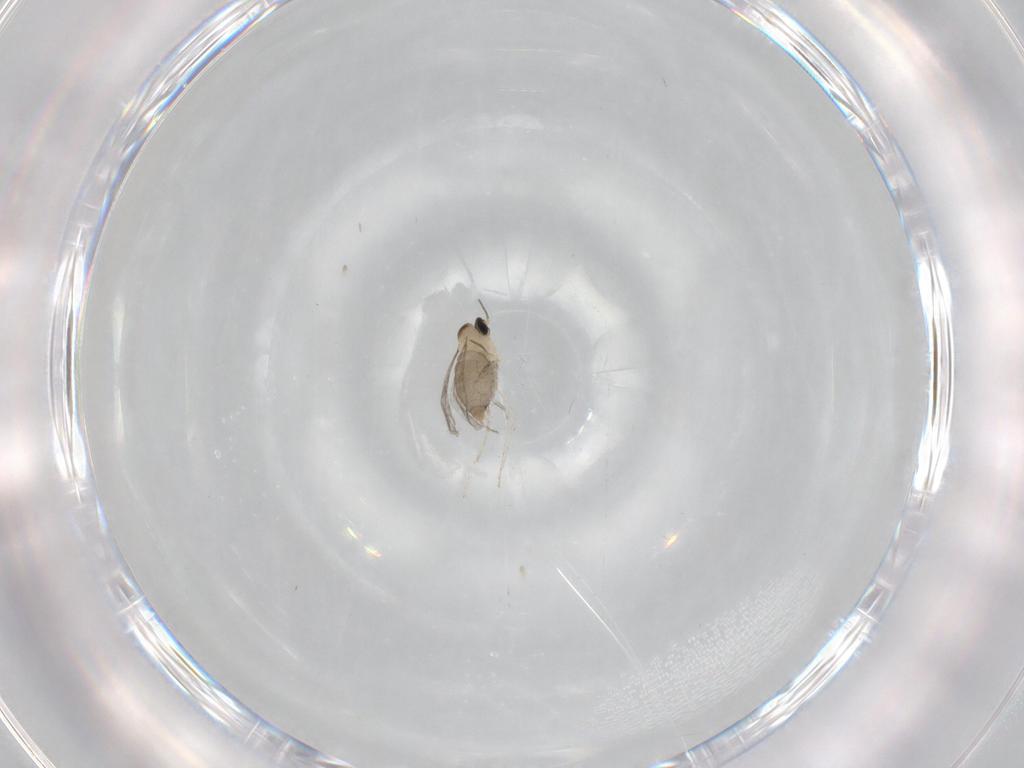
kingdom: Animalia
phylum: Arthropoda
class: Insecta
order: Diptera
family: Cecidomyiidae
